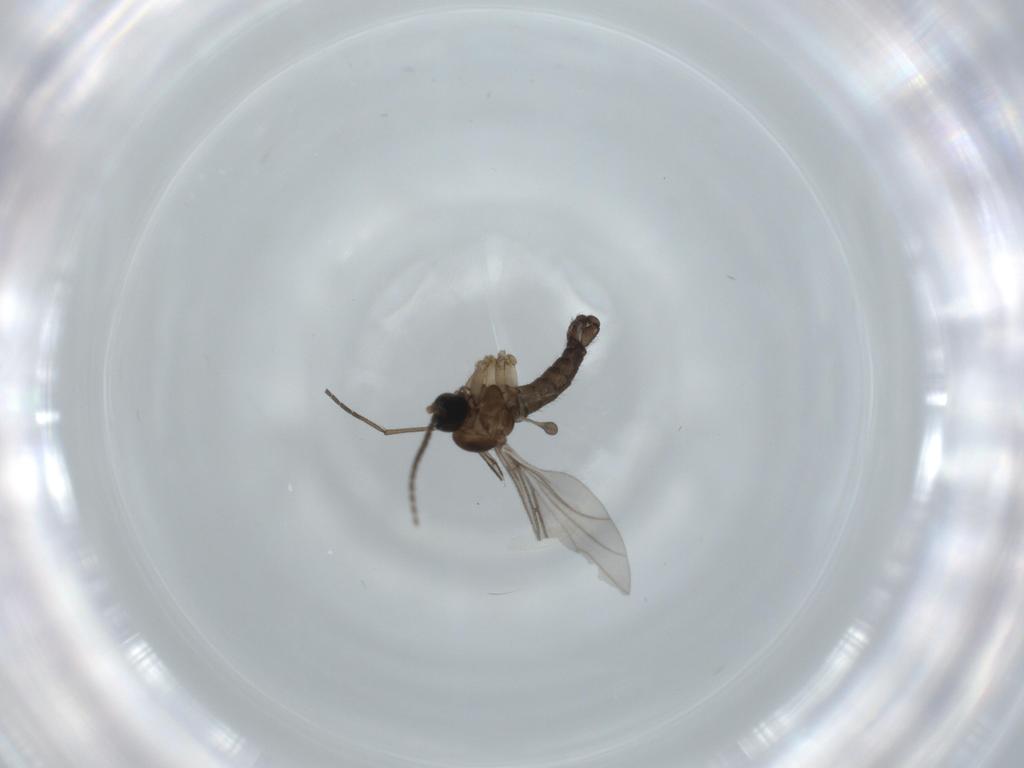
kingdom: Animalia
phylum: Arthropoda
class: Insecta
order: Diptera
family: Sciaridae
